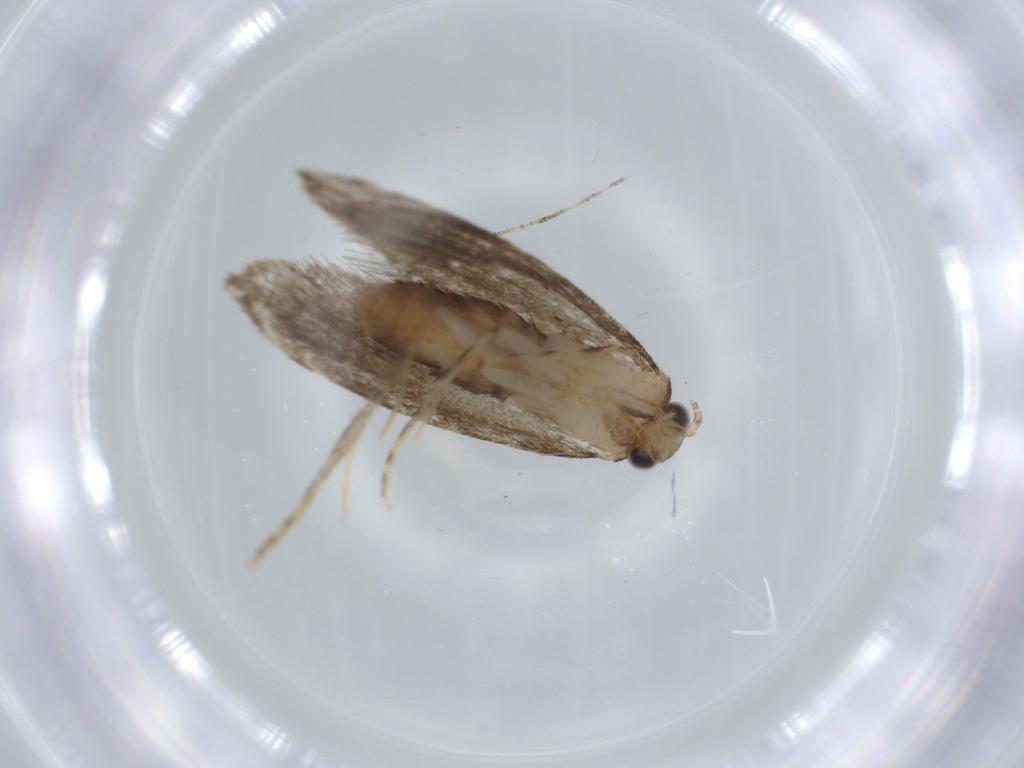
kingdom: Animalia
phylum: Arthropoda
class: Insecta
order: Lepidoptera
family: Tineidae
